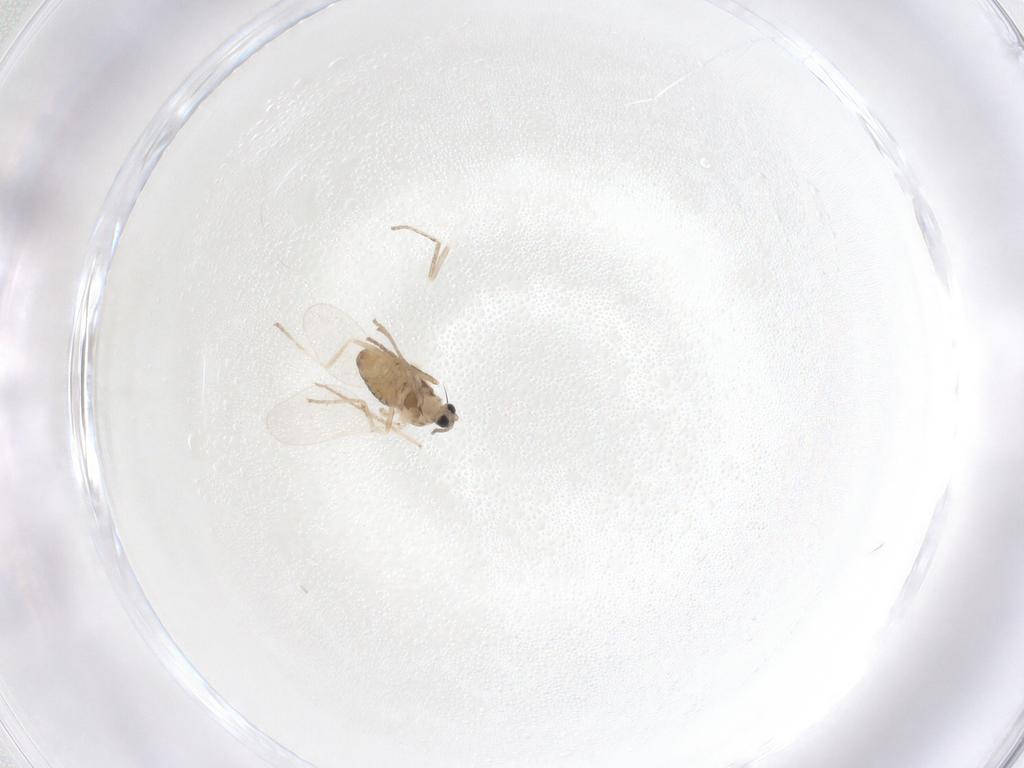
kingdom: Animalia
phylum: Arthropoda
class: Insecta
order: Diptera
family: Cecidomyiidae
